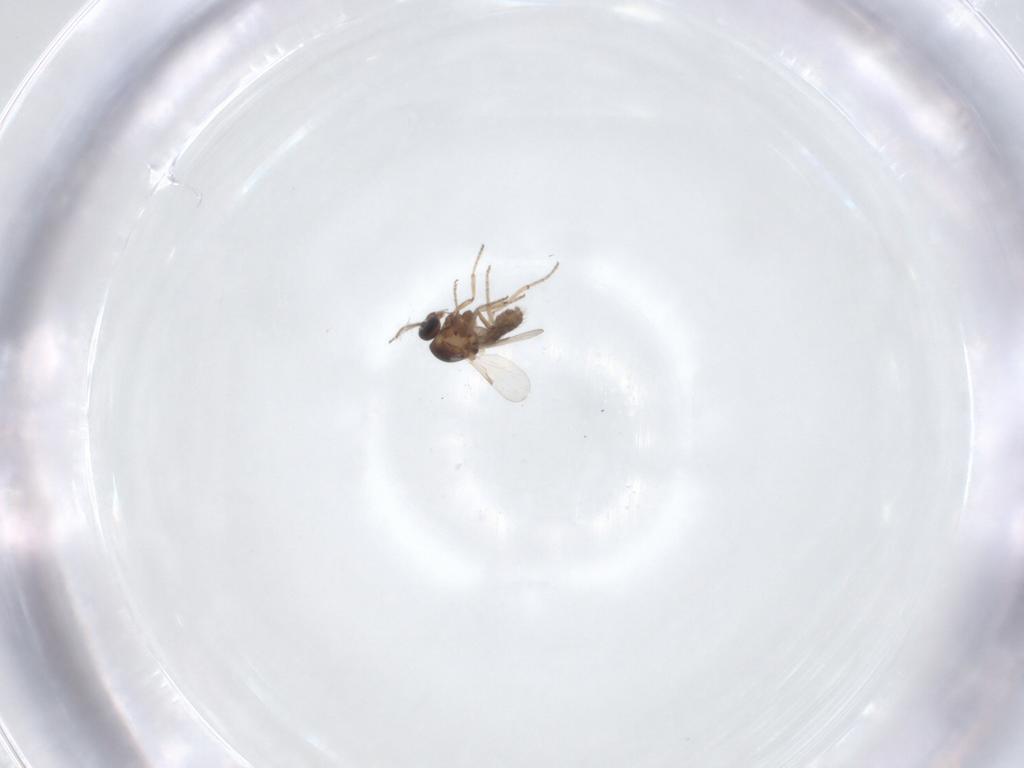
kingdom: Animalia
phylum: Arthropoda
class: Insecta
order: Diptera
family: Ceratopogonidae
